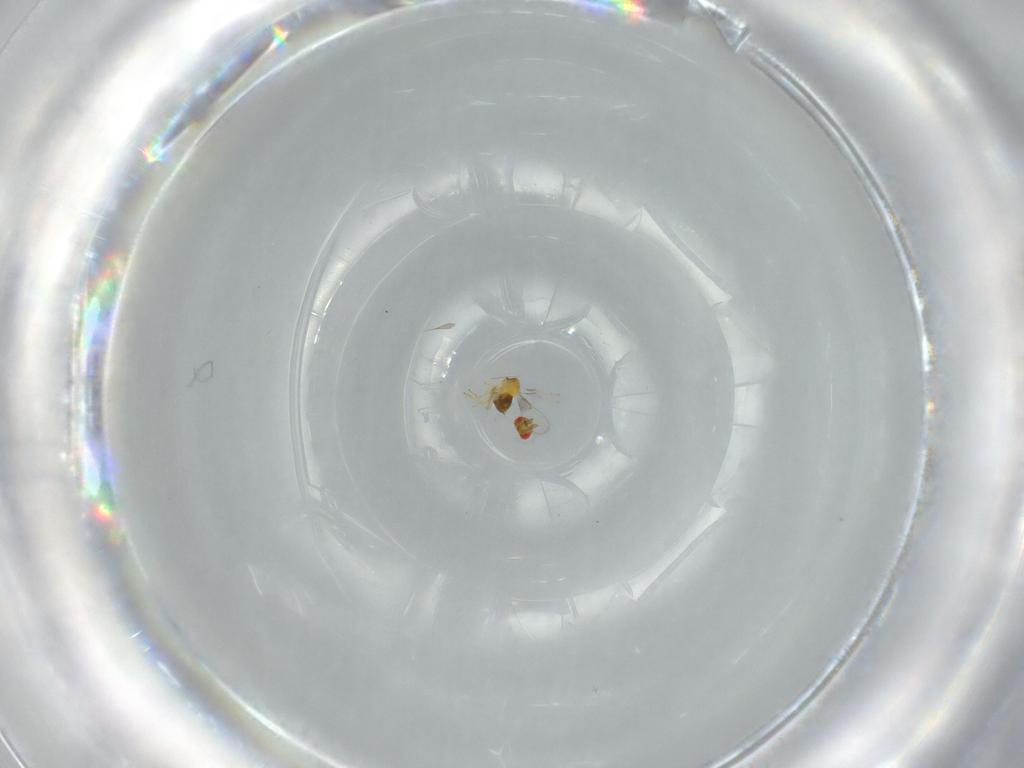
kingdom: Animalia
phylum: Arthropoda
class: Insecta
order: Hymenoptera
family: Trichogrammatidae
